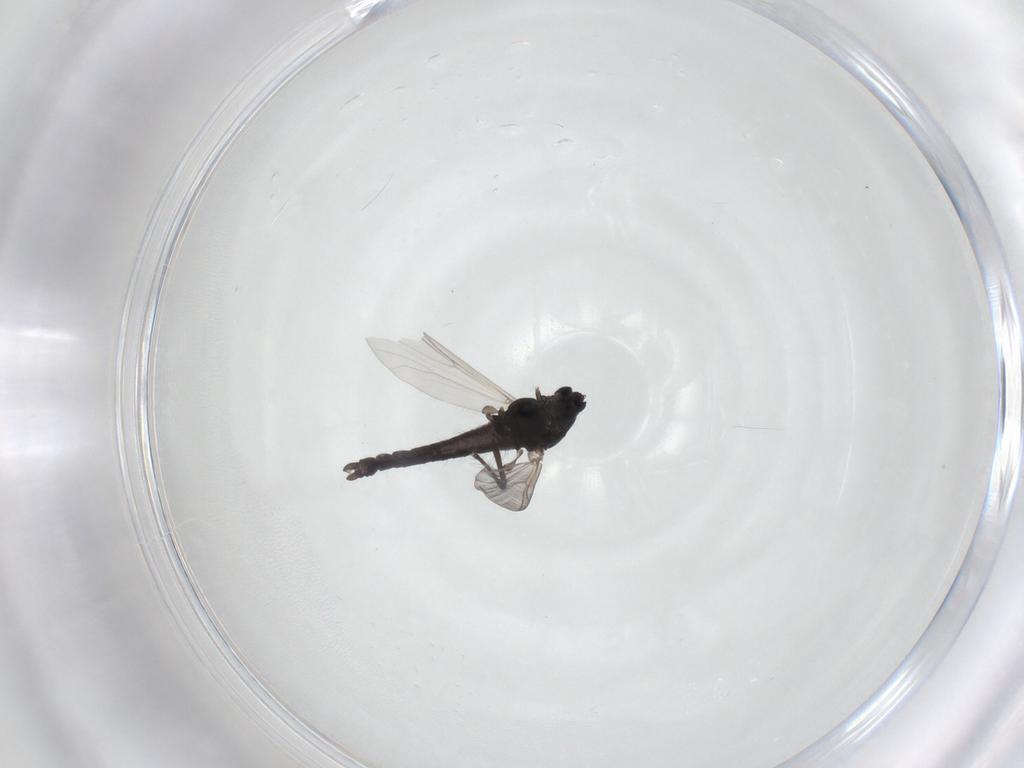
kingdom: Animalia
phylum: Arthropoda
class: Insecta
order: Diptera
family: Chironomidae
